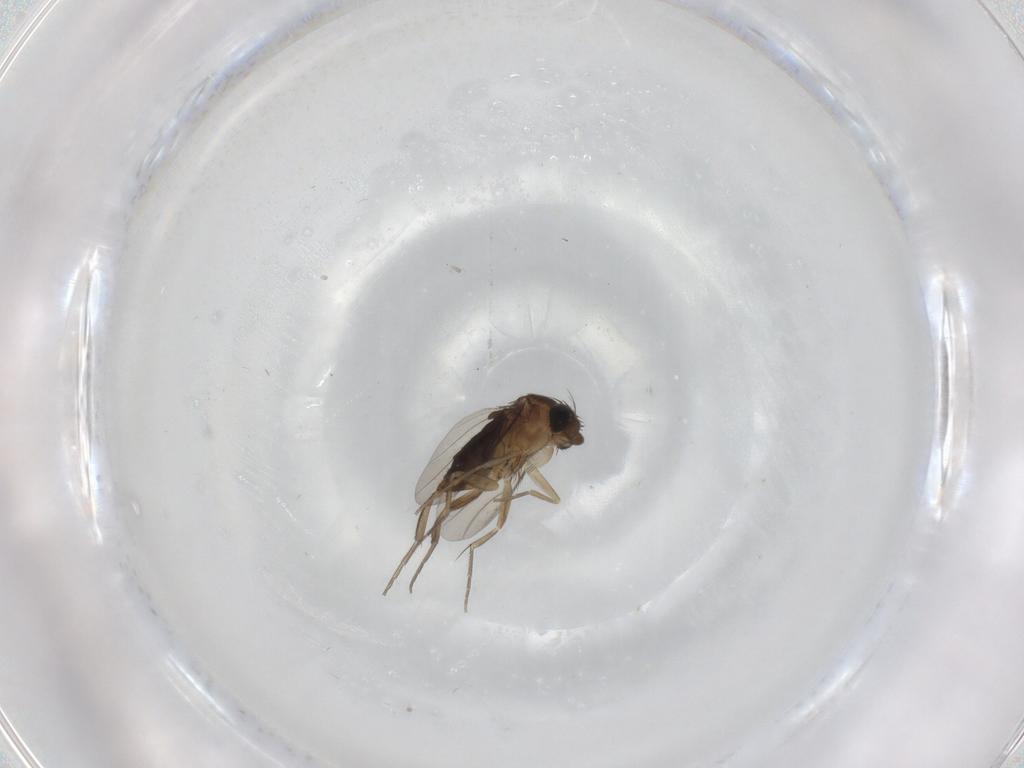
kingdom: Animalia
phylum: Arthropoda
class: Insecta
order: Diptera
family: Phoridae
